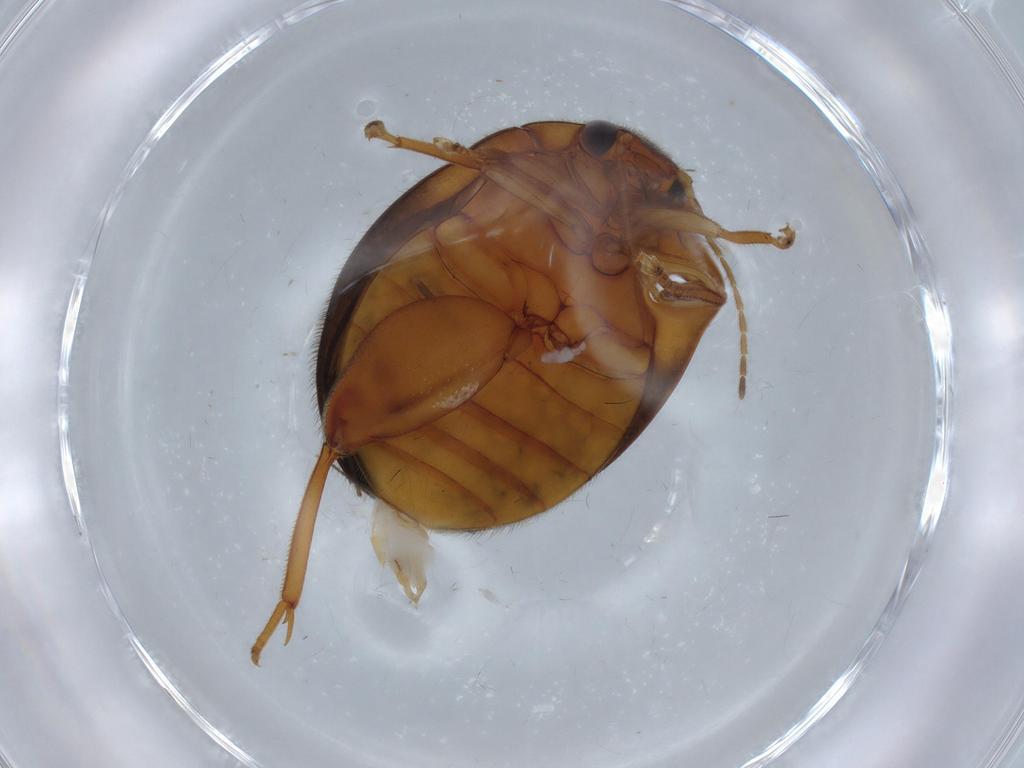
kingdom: Animalia
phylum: Arthropoda
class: Insecta
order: Coleoptera
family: Scirtidae
